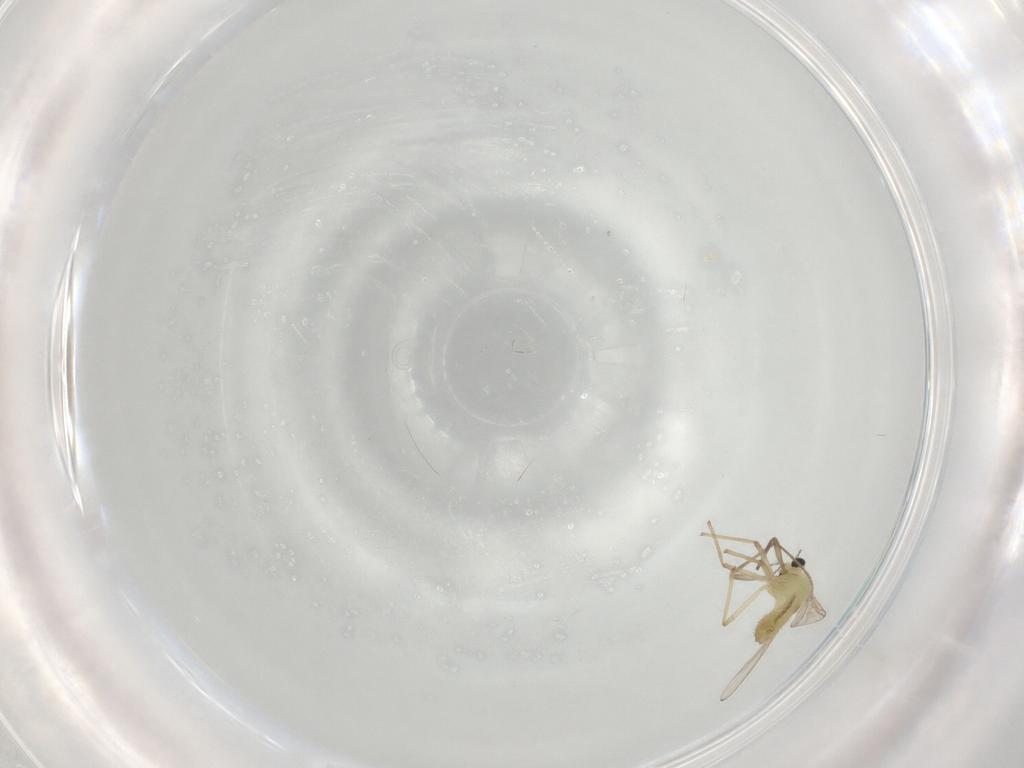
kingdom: Animalia
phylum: Arthropoda
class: Insecta
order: Diptera
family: Chironomidae
